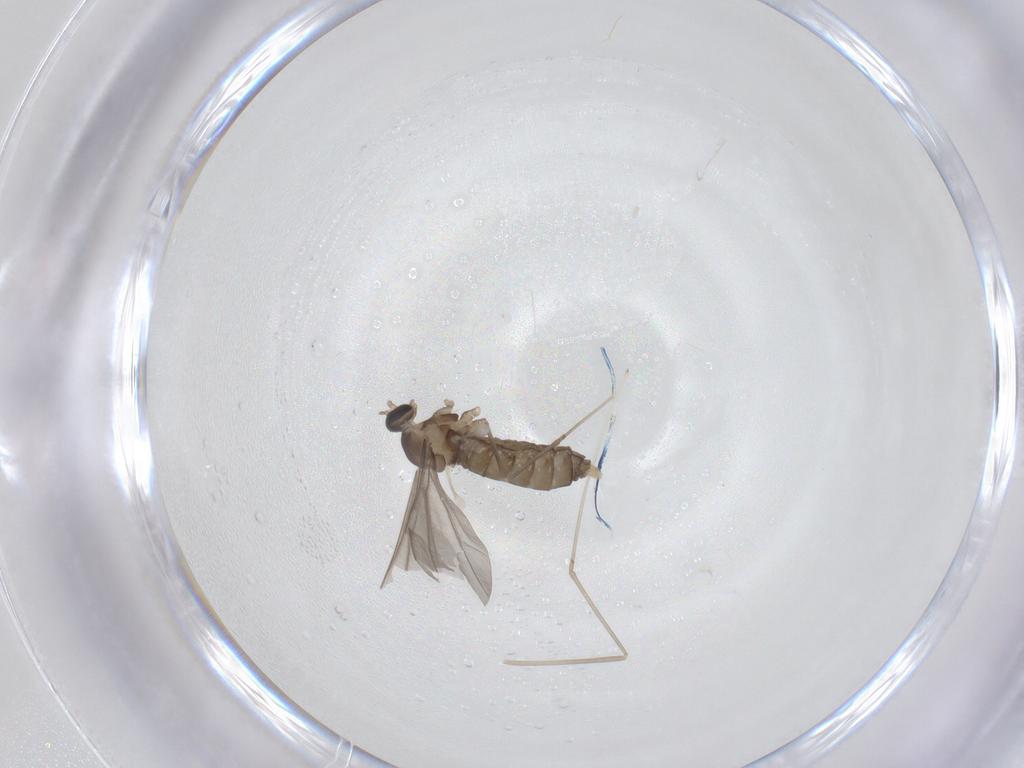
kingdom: Animalia
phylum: Arthropoda
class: Insecta
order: Diptera
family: Cecidomyiidae
